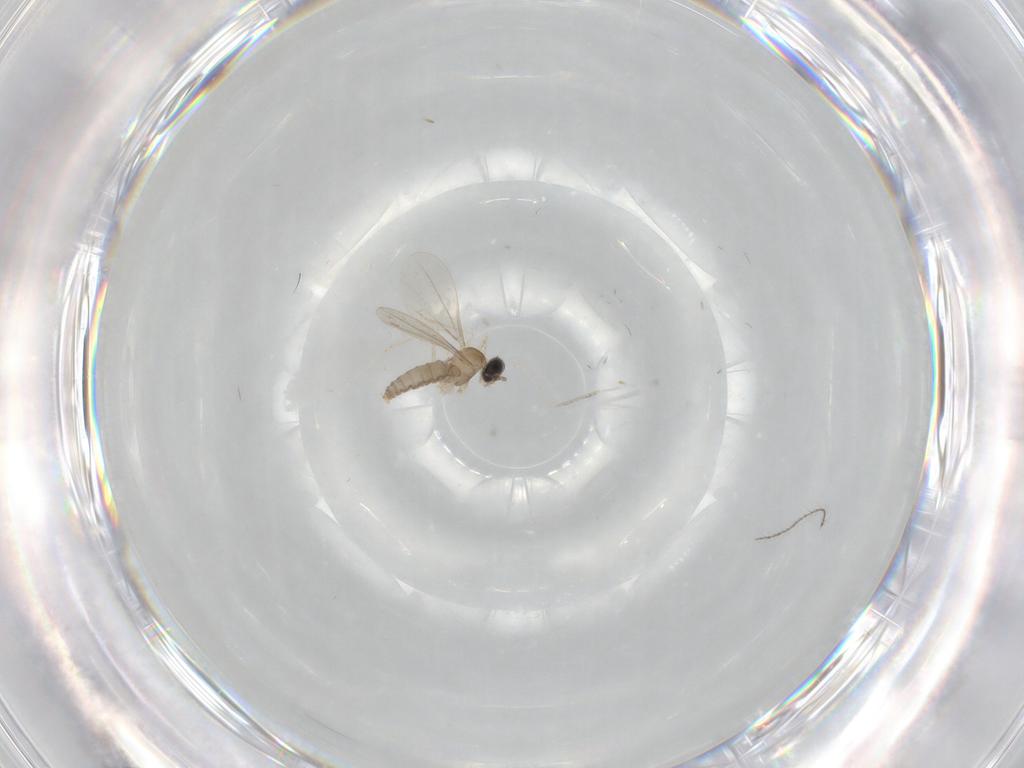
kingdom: Animalia
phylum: Arthropoda
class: Insecta
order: Diptera
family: Cecidomyiidae
